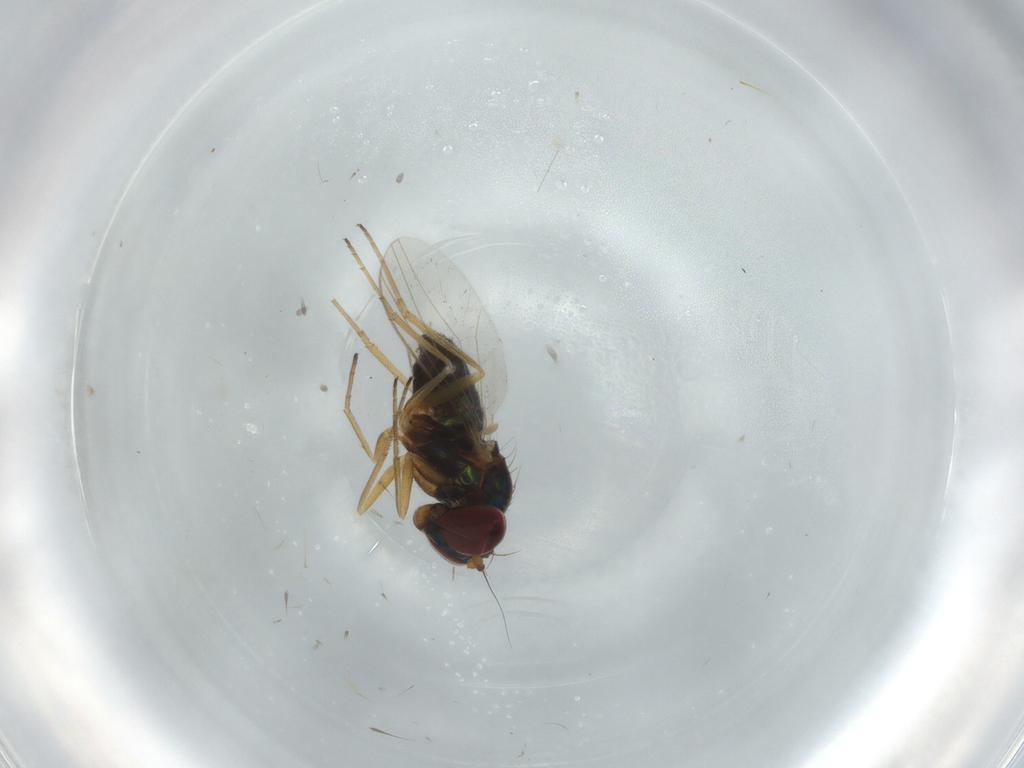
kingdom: Animalia
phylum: Arthropoda
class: Insecta
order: Diptera
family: Dolichopodidae
